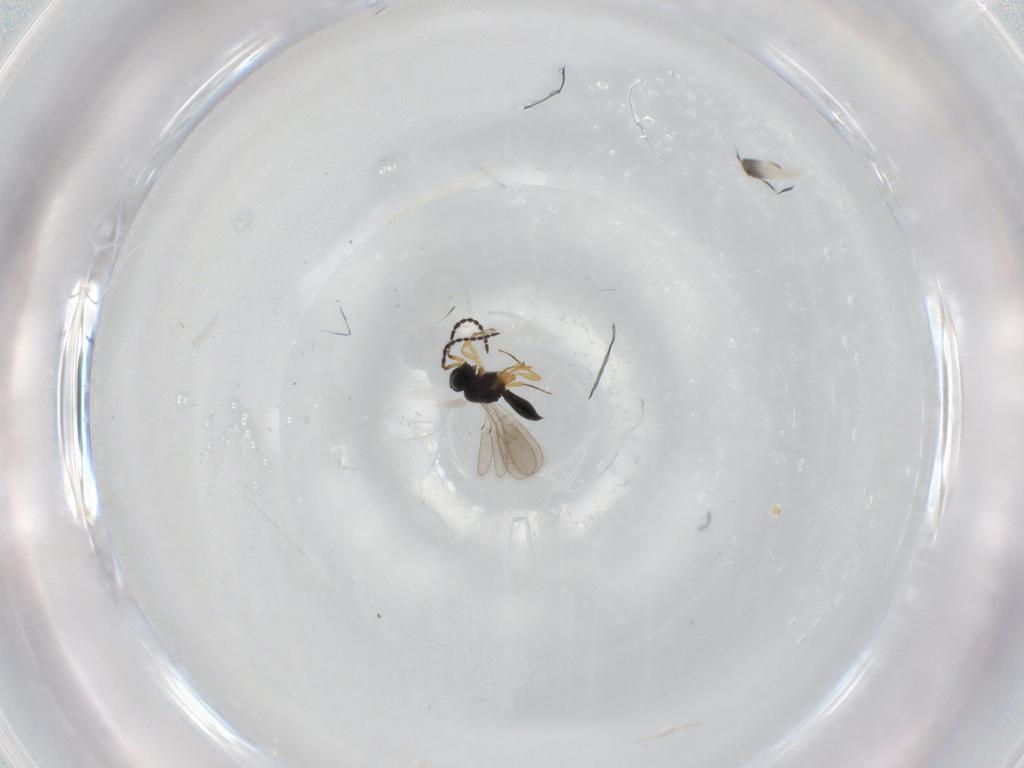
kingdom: Animalia
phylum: Arthropoda
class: Insecta
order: Hymenoptera
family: Scelionidae
